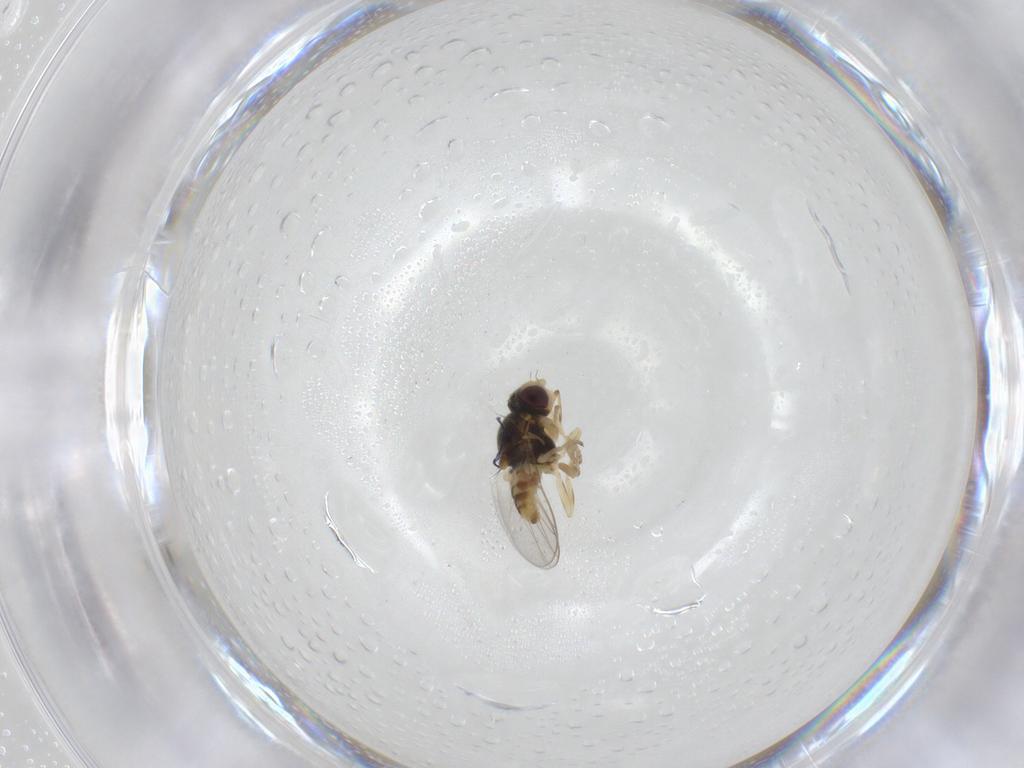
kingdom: Animalia
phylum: Arthropoda
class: Insecta
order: Diptera
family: Chloropidae
